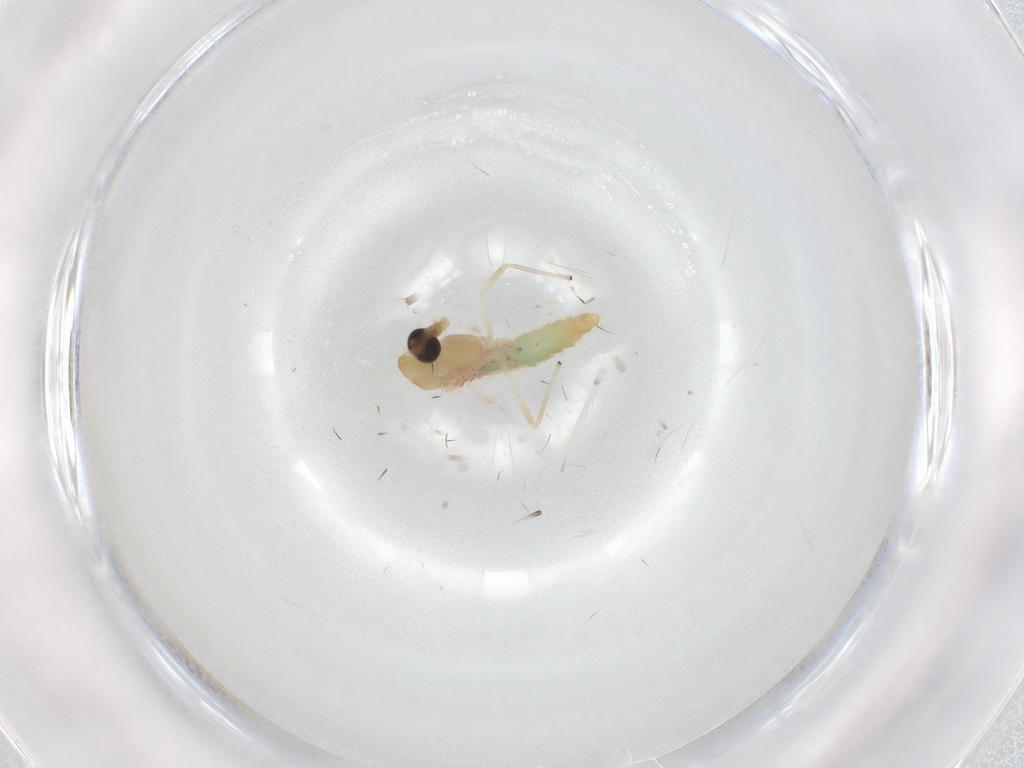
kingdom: Animalia
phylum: Arthropoda
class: Insecta
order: Diptera
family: Chironomidae
